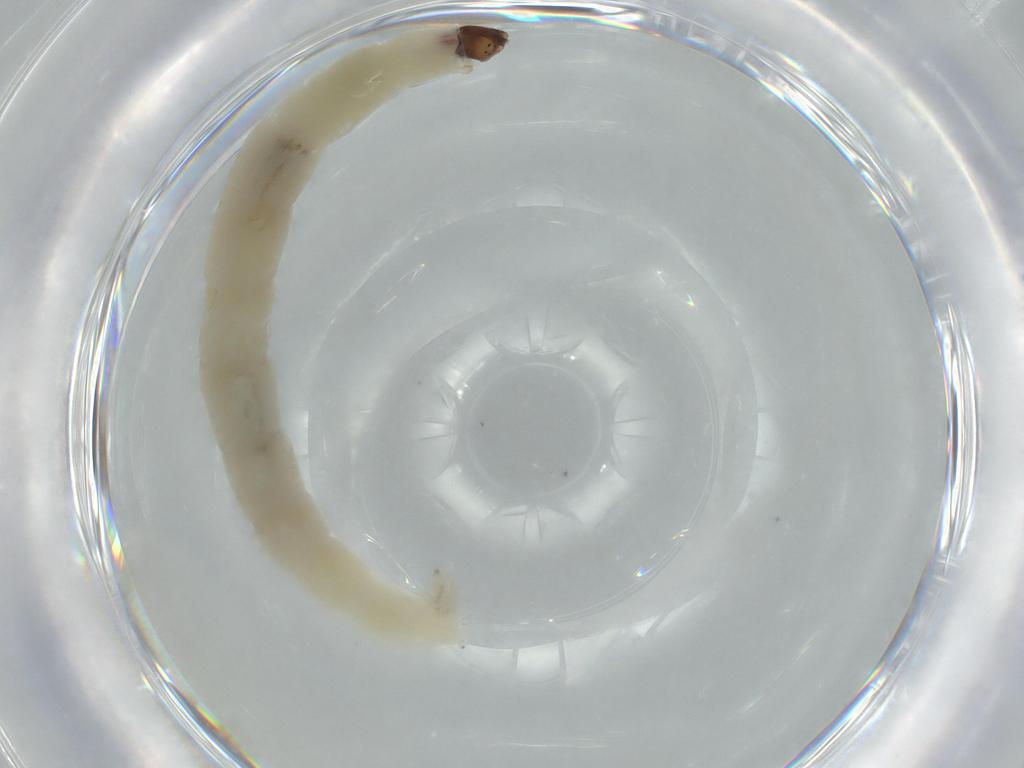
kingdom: Animalia
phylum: Arthropoda
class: Insecta
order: Diptera
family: Chironomidae
